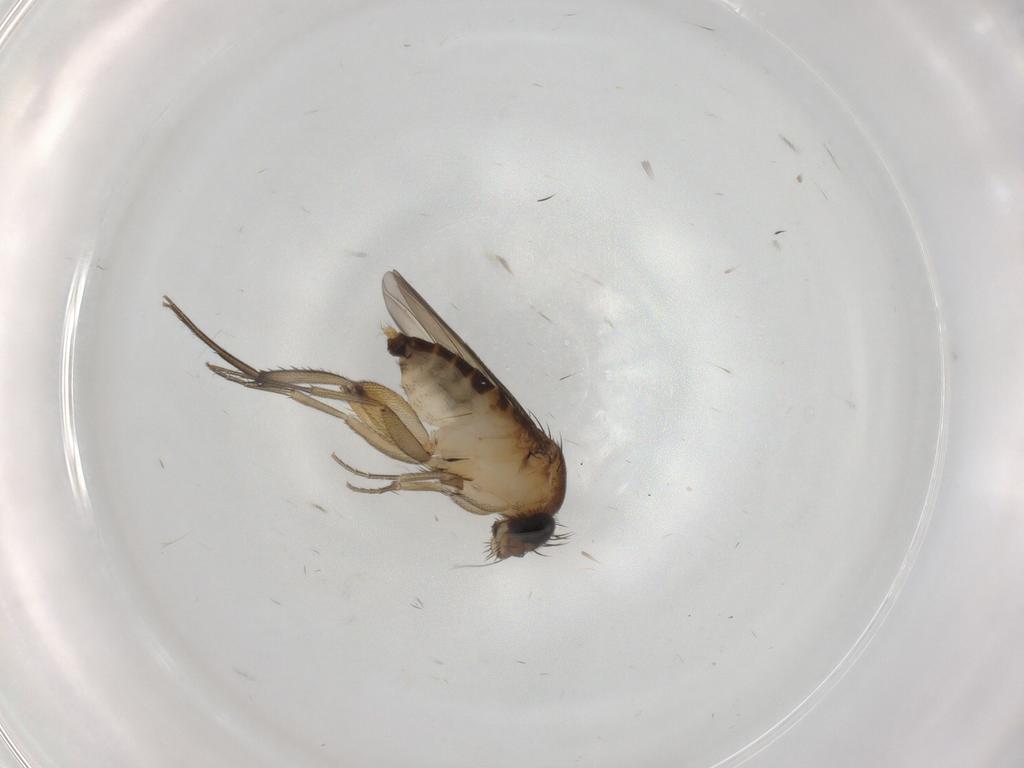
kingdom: Animalia
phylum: Arthropoda
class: Insecta
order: Diptera
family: Phoridae
